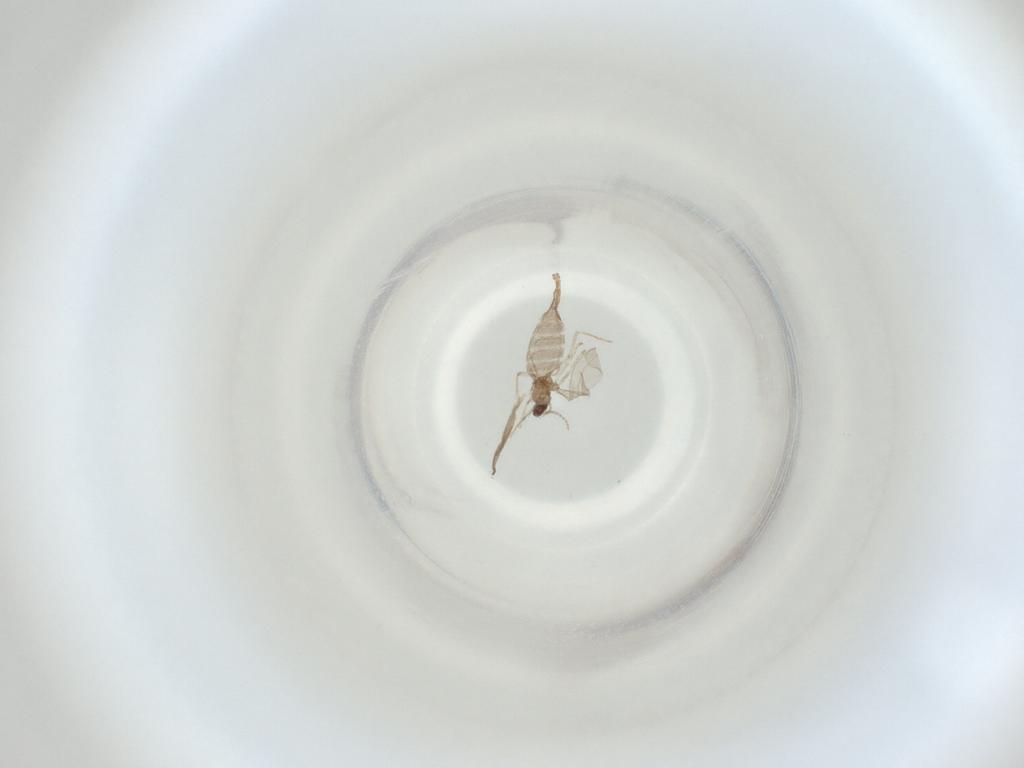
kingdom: Animalia
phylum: Arthropoda
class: Insecta
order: Diptera
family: Cecidomyiidae
